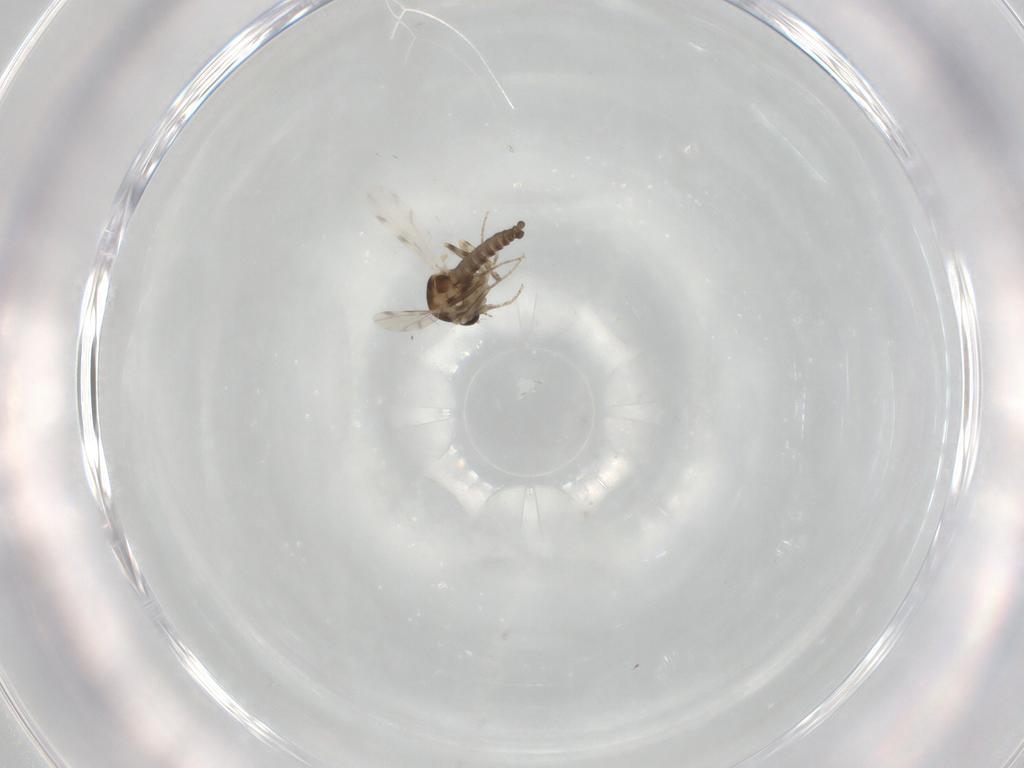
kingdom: Animalia
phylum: Arthropoda
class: Insecta
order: Diptera
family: Ceratopogonidae
